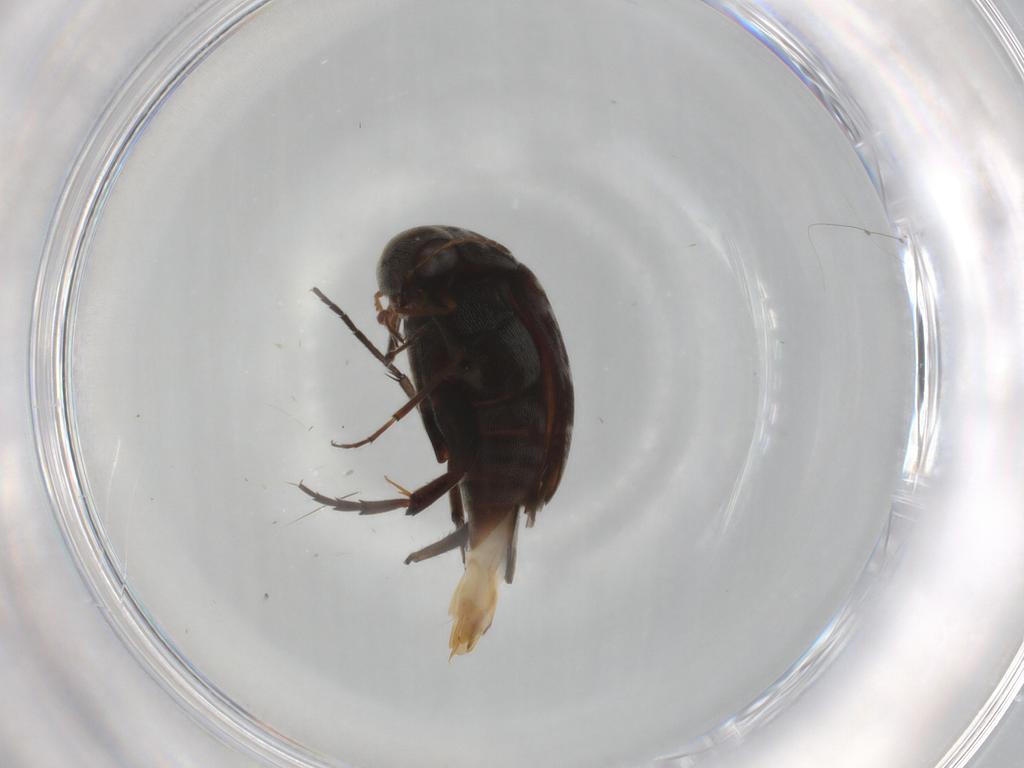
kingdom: Animalia
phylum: Arthropoda
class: Insecta
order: Coleoptera
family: Mordellidae
